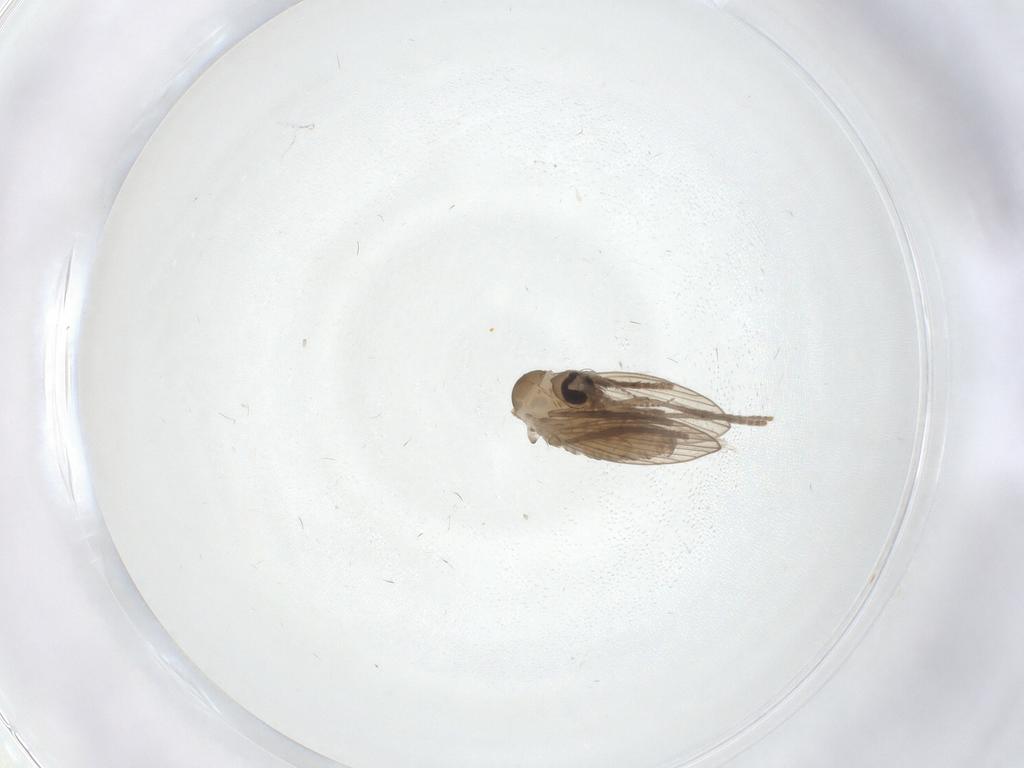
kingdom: Animalia
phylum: Arthropoda
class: Insecta
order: Diptera
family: Psychodidae
